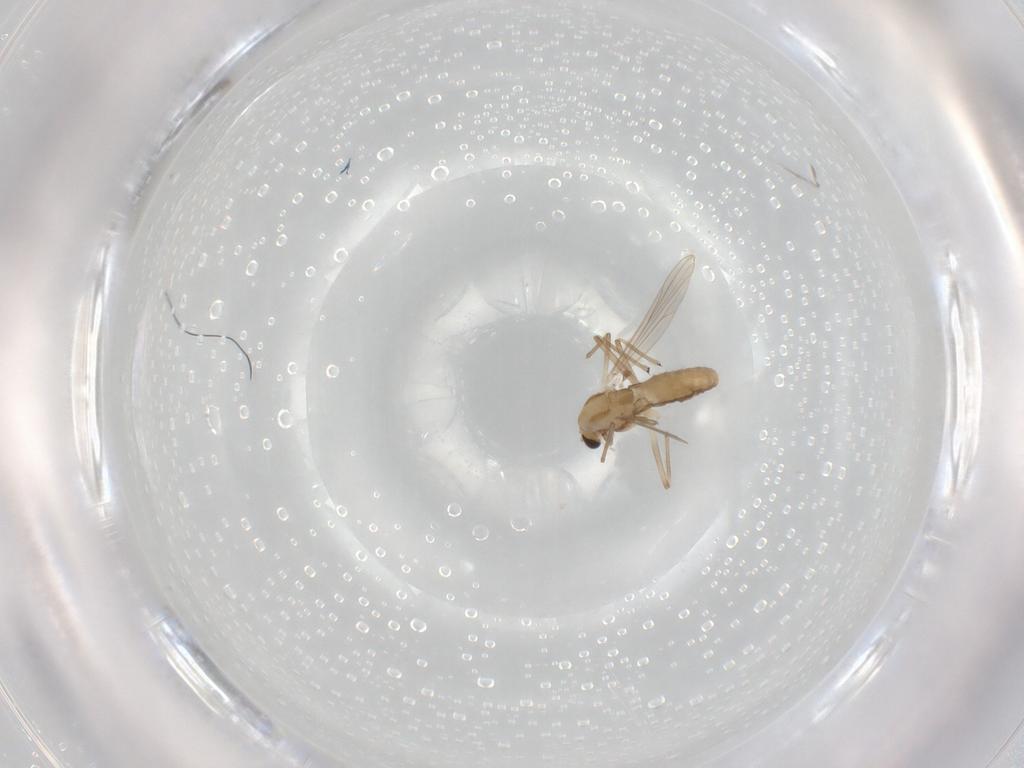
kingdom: Animalia
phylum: Arthropoda
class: Insecta
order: Diptera
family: Chironomidae
